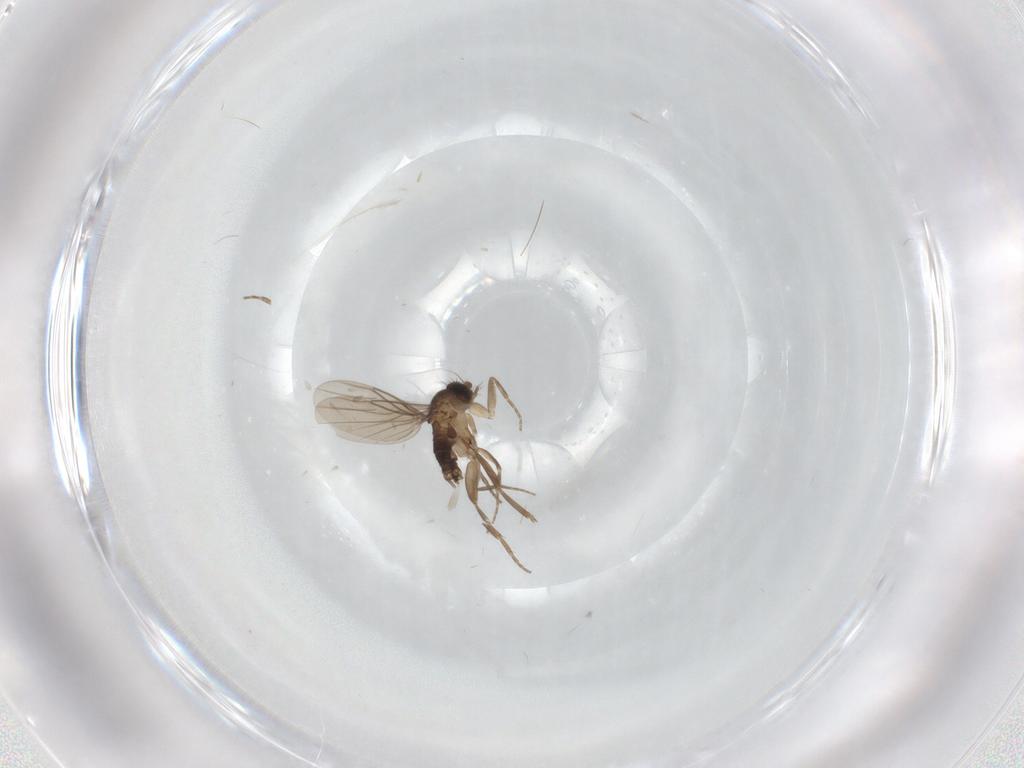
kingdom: Animalia
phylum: Arthropoda
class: Insecta
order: Diptera
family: Phoridae
